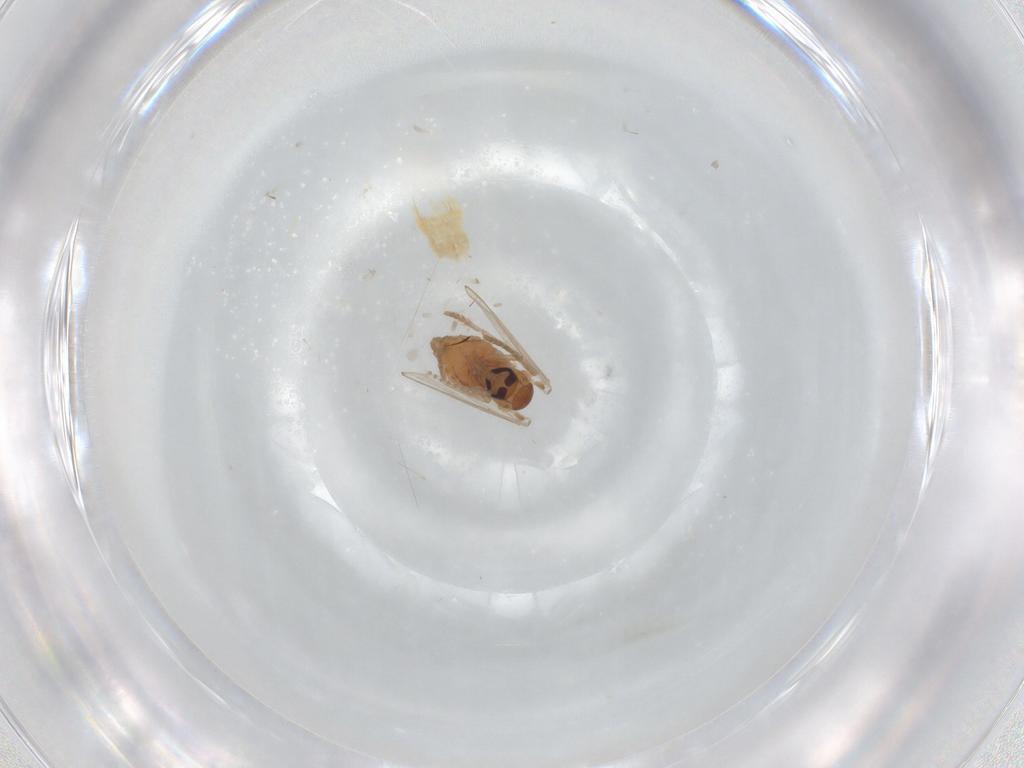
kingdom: Animalia
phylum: Arthropoda
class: Insecta
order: Diptera
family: Psychodidae
